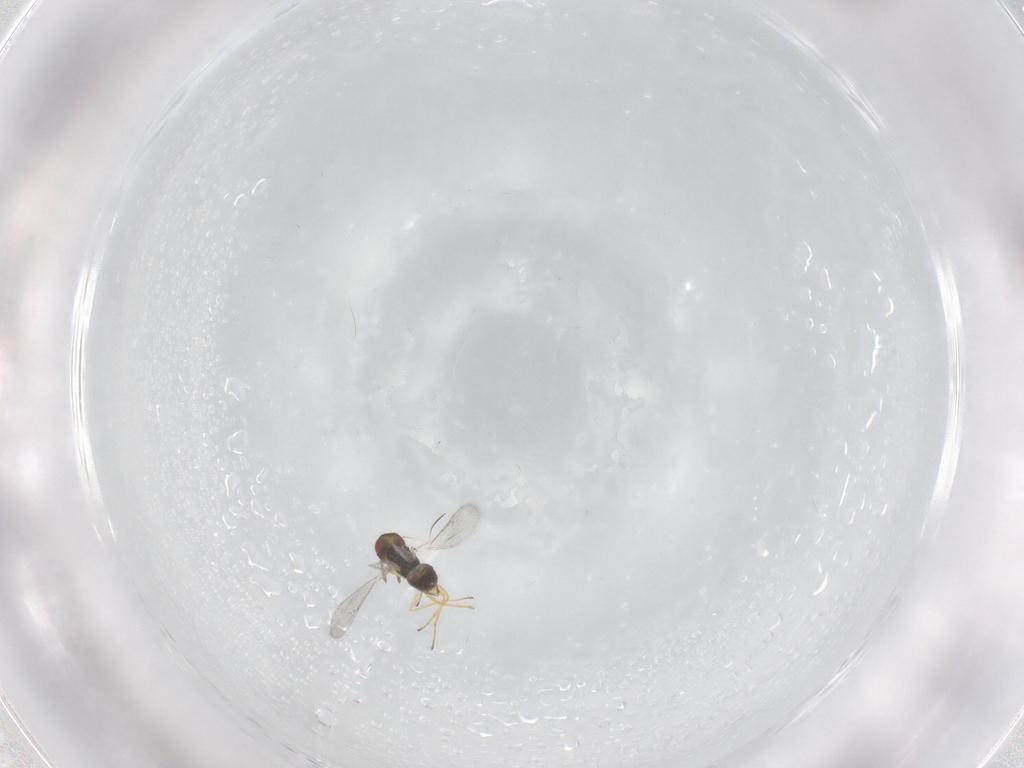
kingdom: Animalia
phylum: Arthropoda
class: Insecta
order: Hymenoptera
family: Eulophidae
